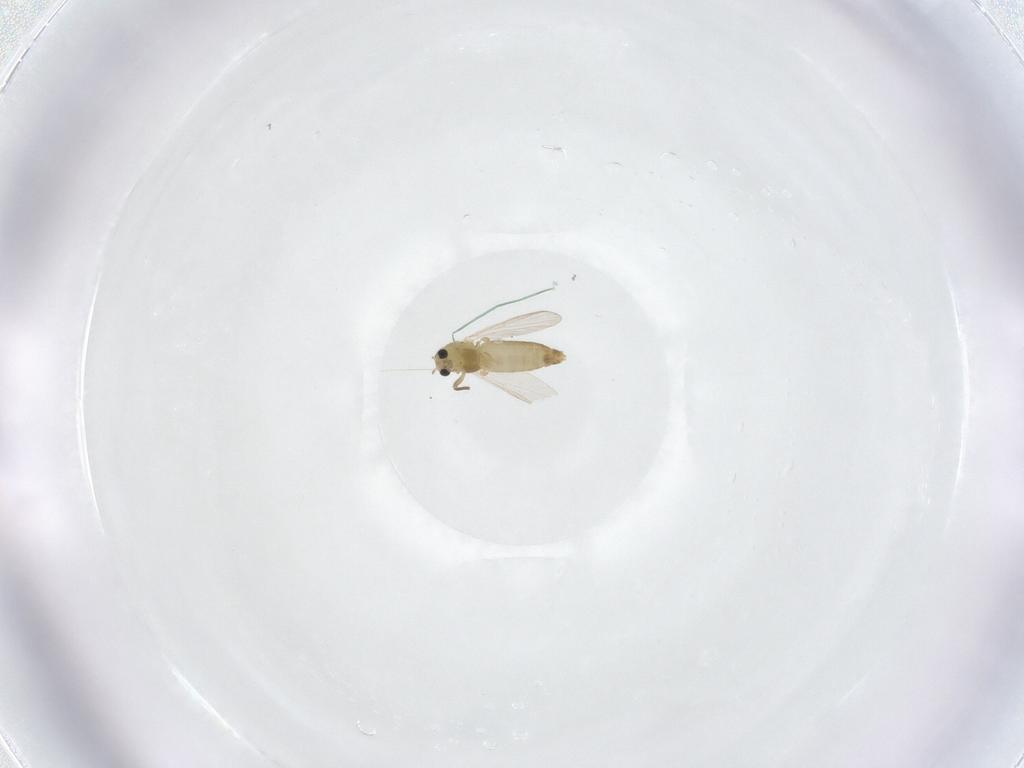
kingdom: Animalia
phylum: Arthropoda
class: Insecta
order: Diptera
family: Chironomidae
